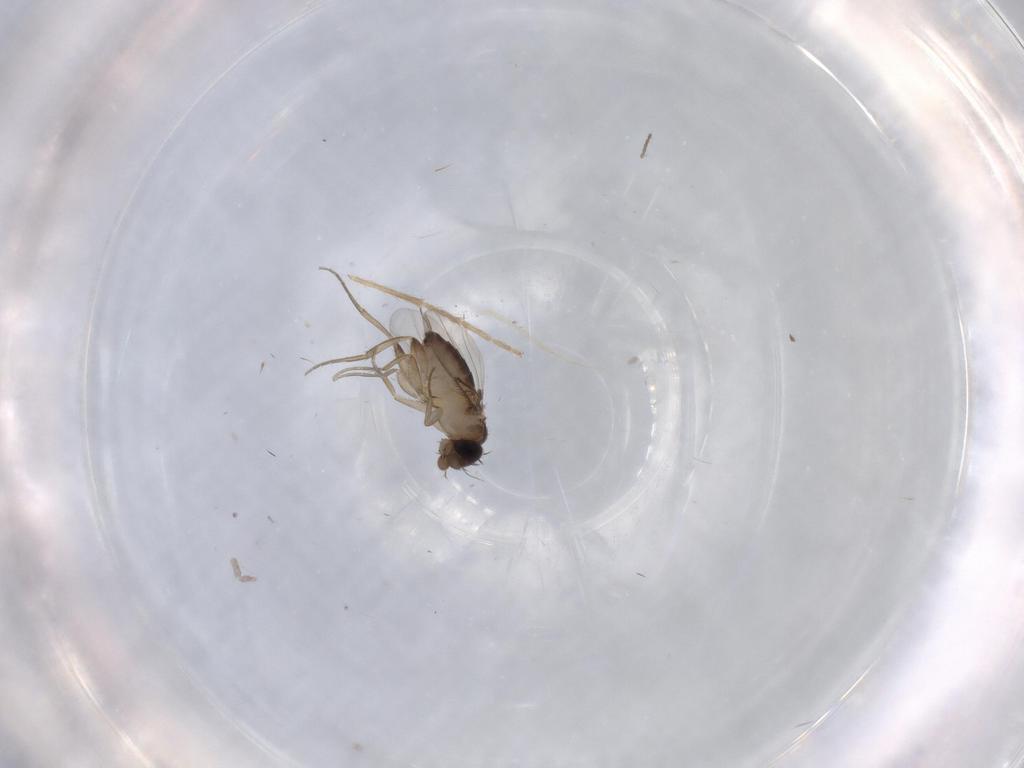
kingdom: Animalia
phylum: Arthropoda
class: Insecta
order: Diptera
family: Phoridae
